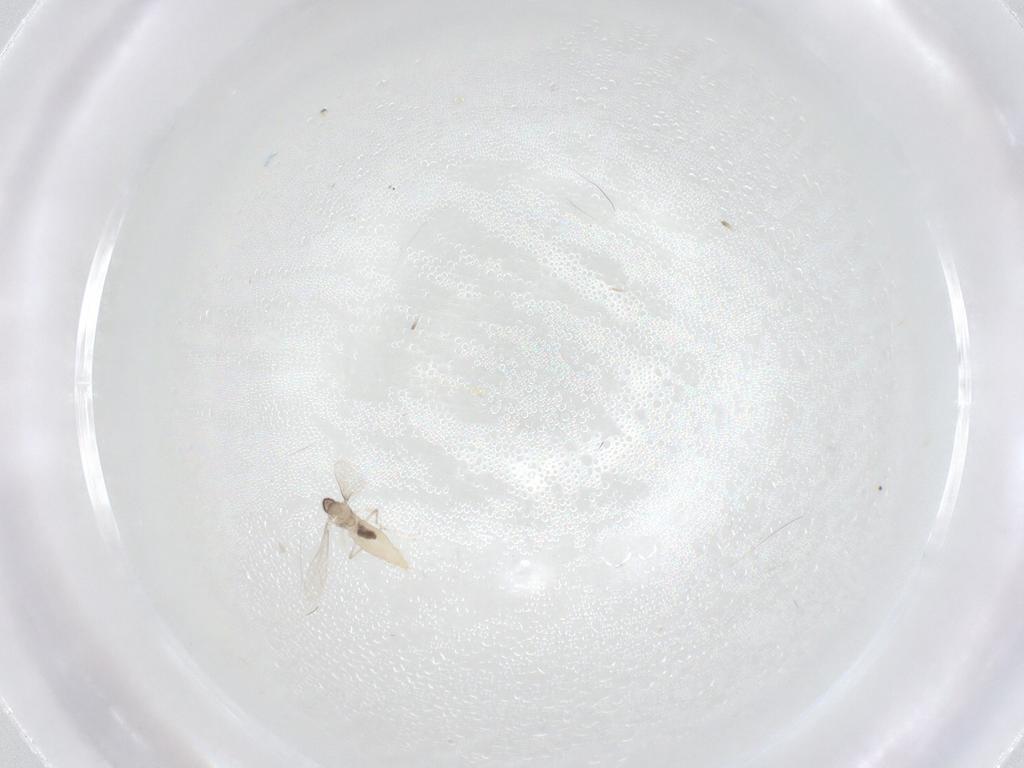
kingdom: Animalia
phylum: Arthropoda
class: Insecta
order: Diptera
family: Cecidomyiidae
